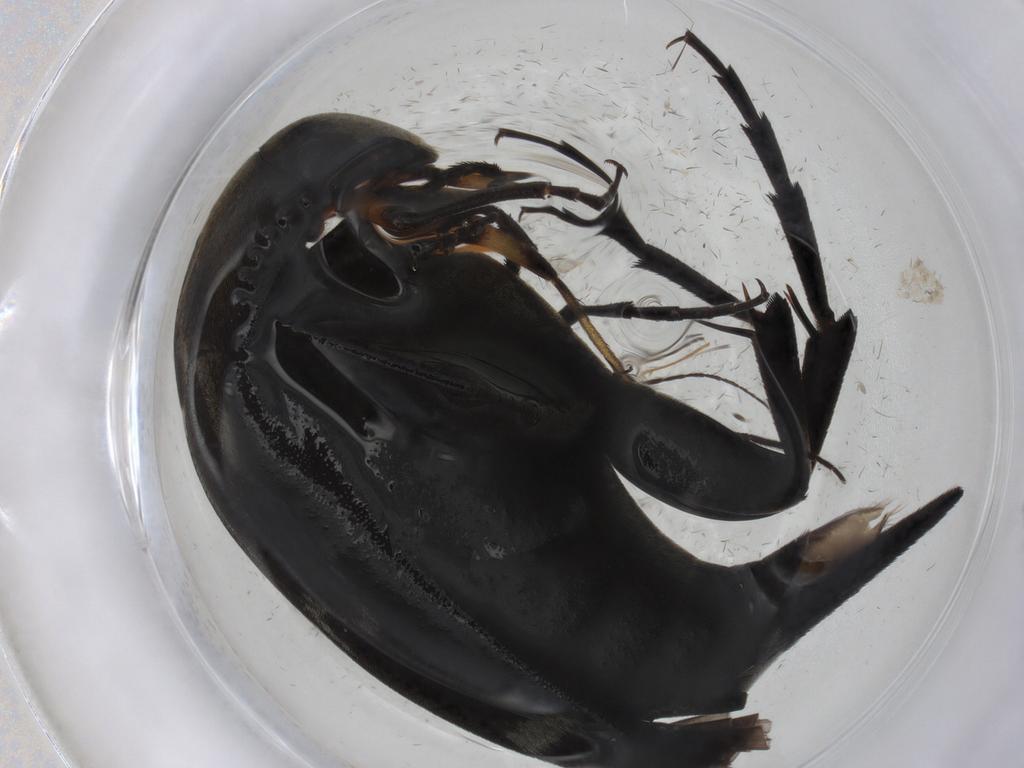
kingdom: Animalia
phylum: Arthropoda
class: Insecta
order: Coleoptera
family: Mordellidae
